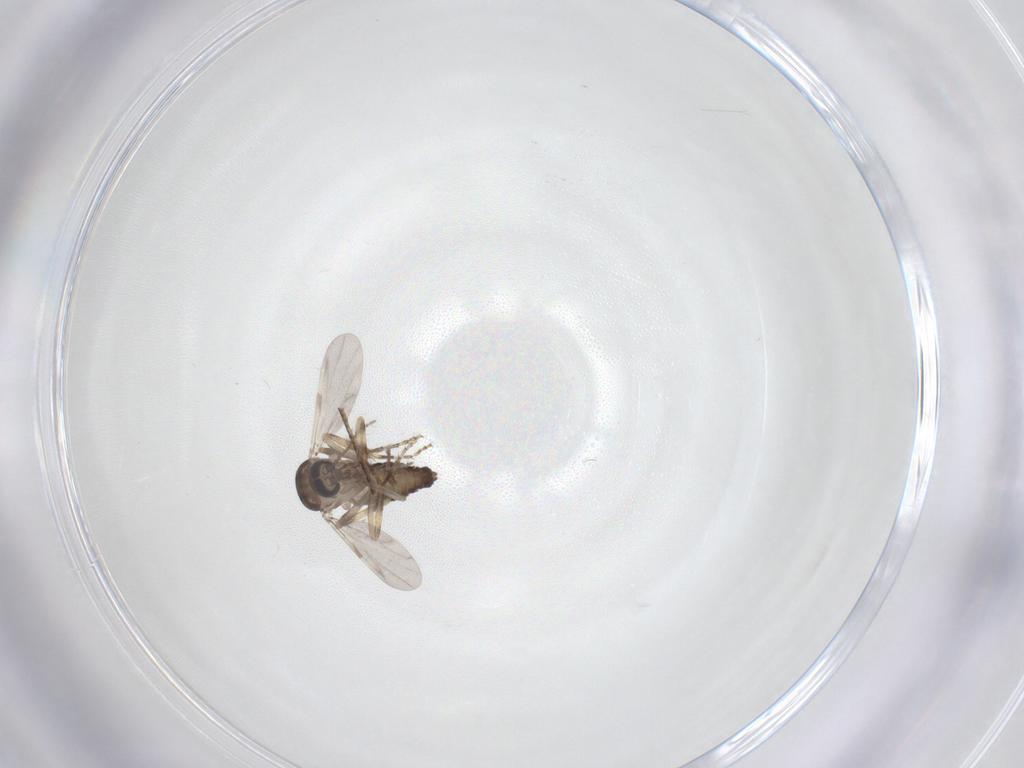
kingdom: Animalia
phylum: Arthropoda
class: Insecta
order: Diptera
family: Ceratopogonidae
